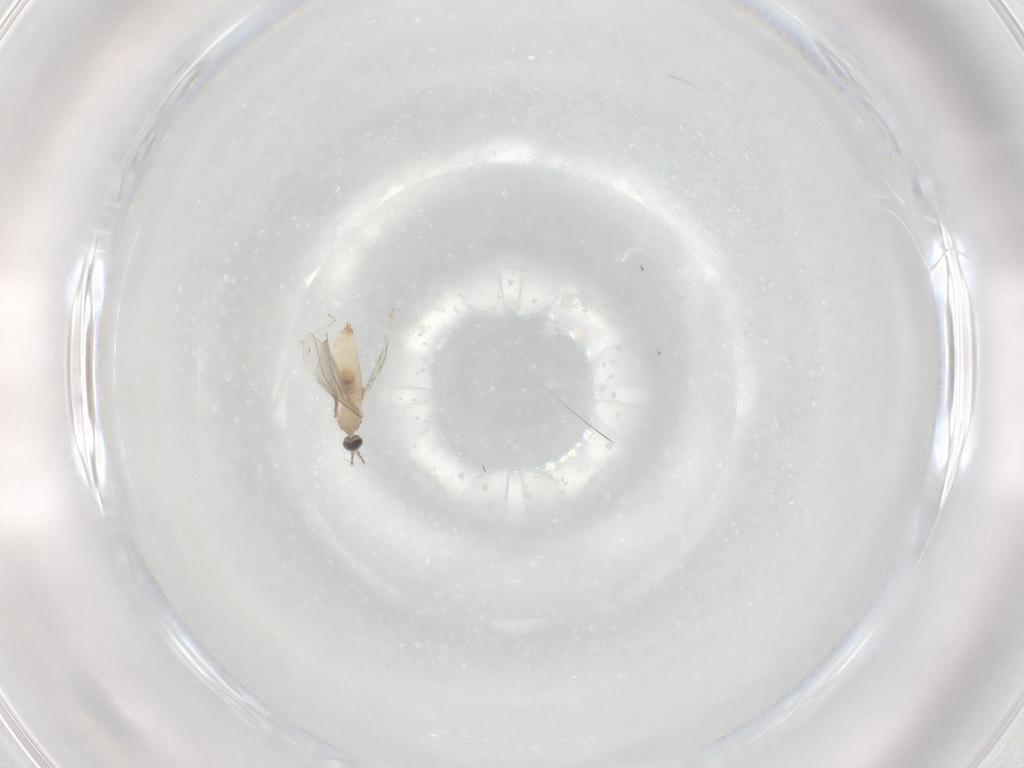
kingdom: Animalia
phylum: Arthropoda
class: Insecta
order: Diptera
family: Cecidomyiidae
